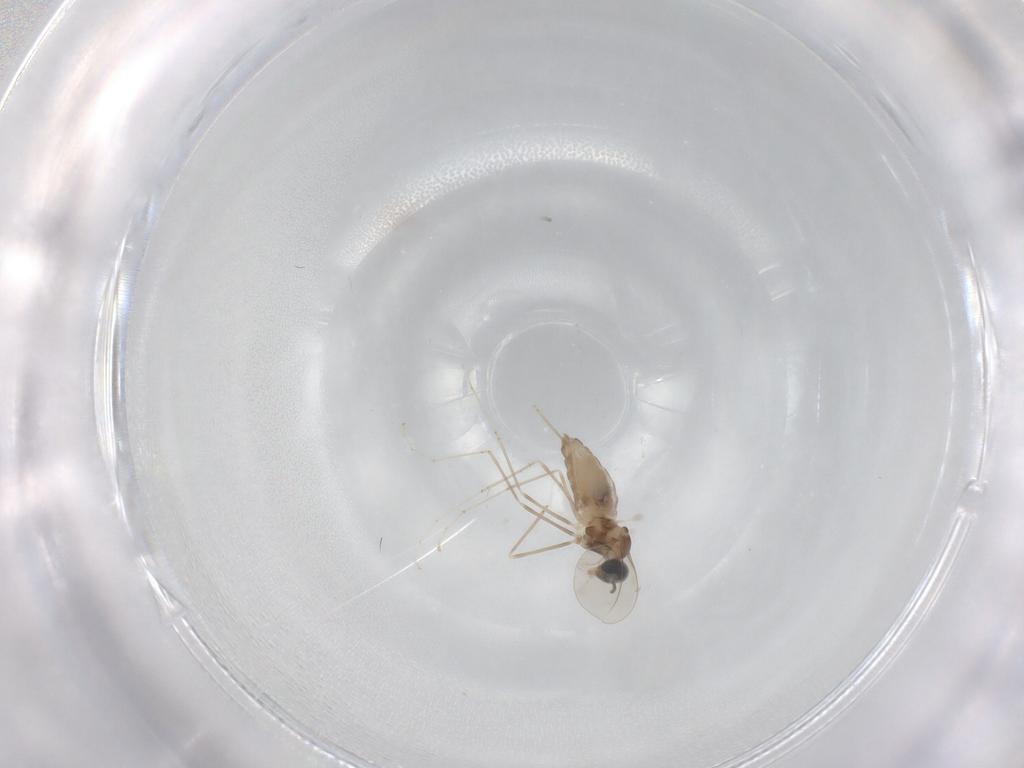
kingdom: Animalia
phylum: Arthropoda
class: Insecta
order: Diptera
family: Cecidomyiidae
